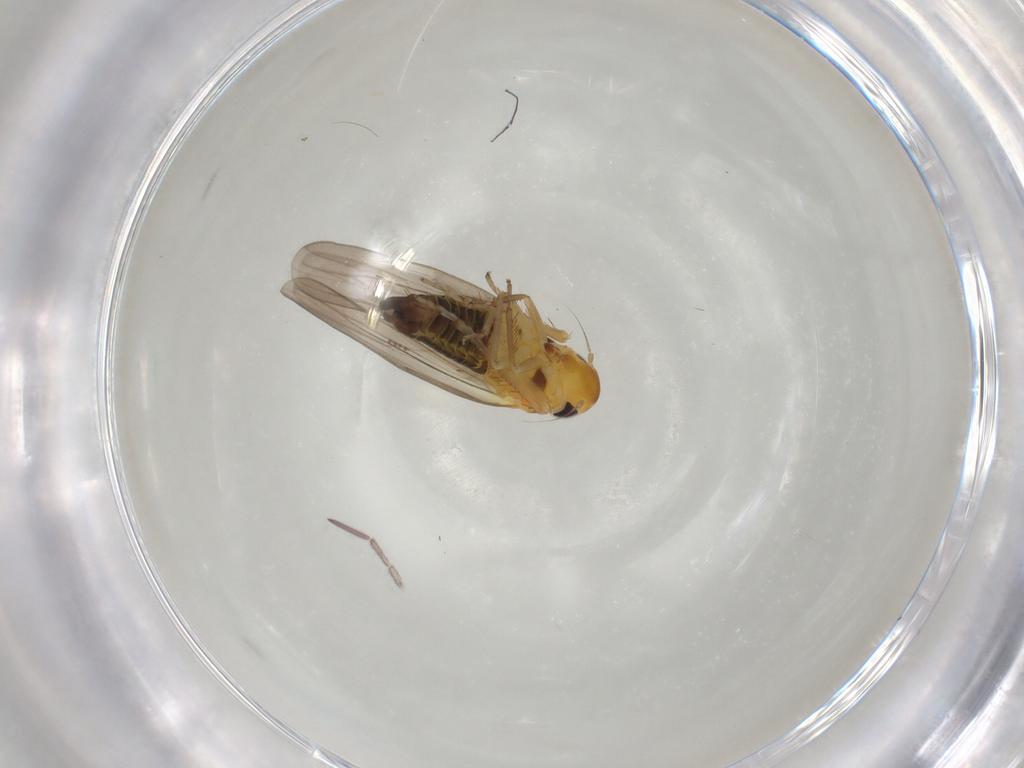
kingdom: Animalia
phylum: Arthropoda
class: Insecta
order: Hemiptera
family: Cicadellidae
